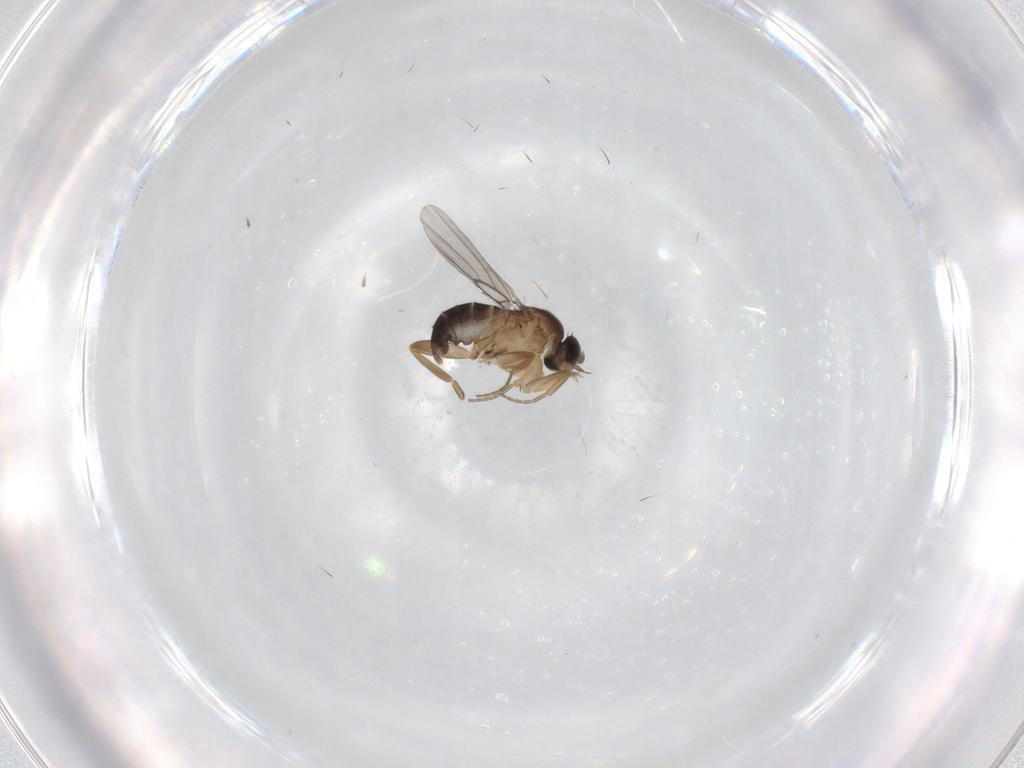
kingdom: Animalia
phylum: Arthropoda
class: Insecta
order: Diptera
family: Phoridae
